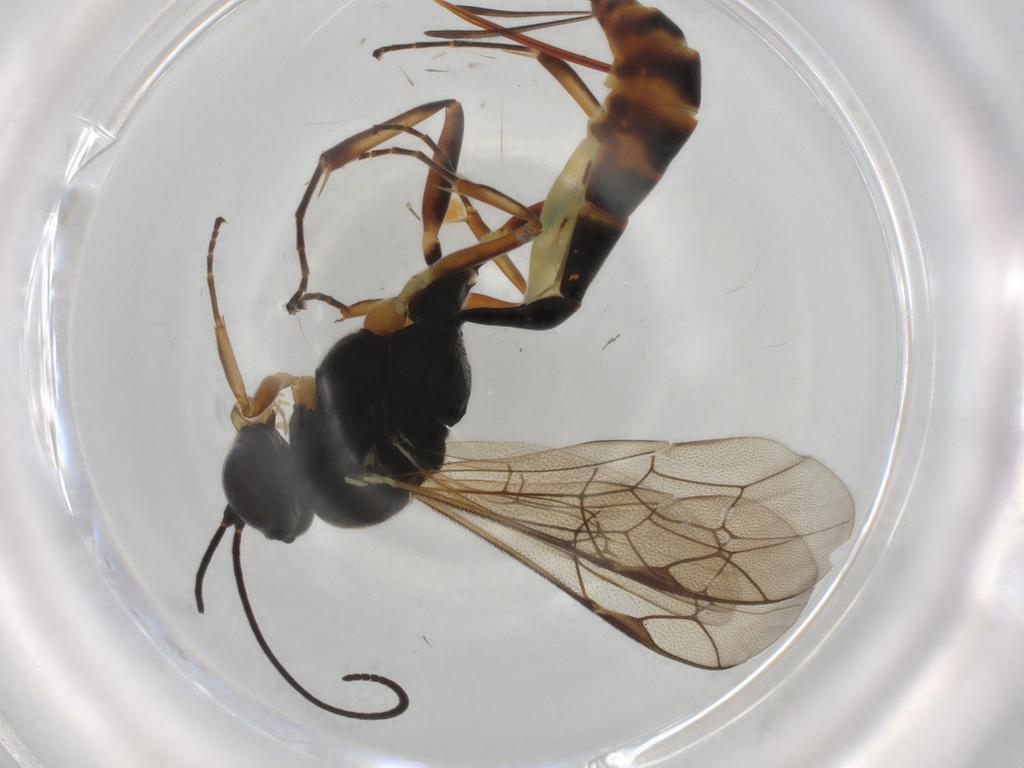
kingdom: Animalia
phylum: Arthropoda
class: Insecta
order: Hymenoptera
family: Ichneumonidae
